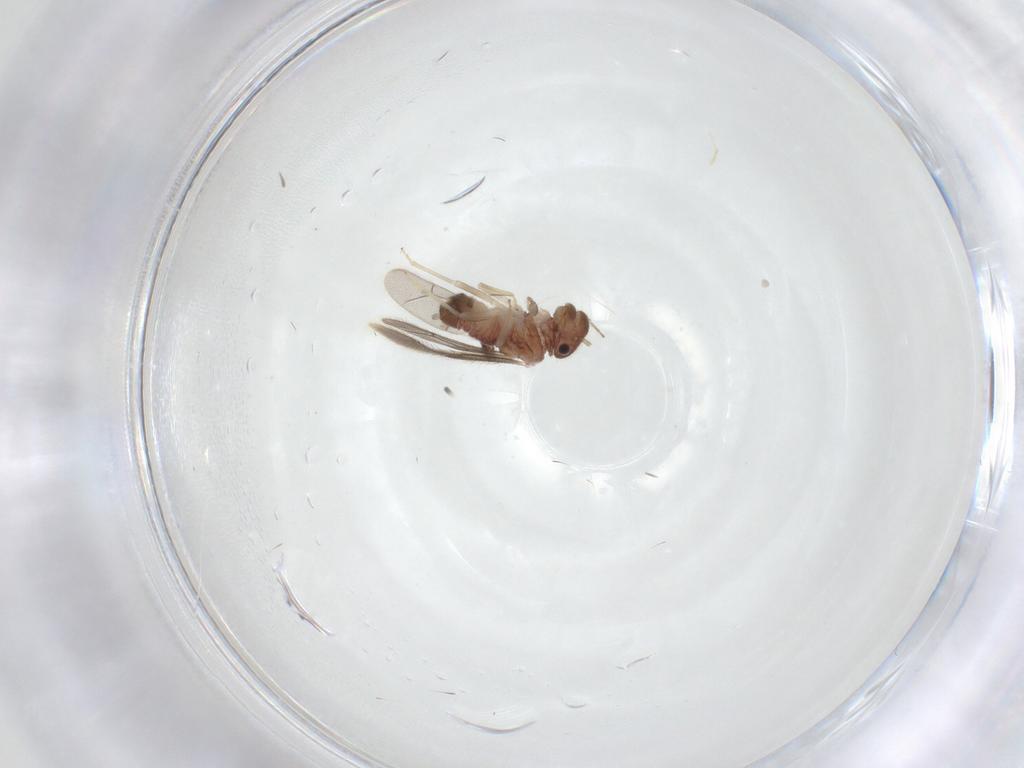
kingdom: Animalia
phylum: Arthropoda
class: Insecta
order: Psocodea
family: Archipsocidae
